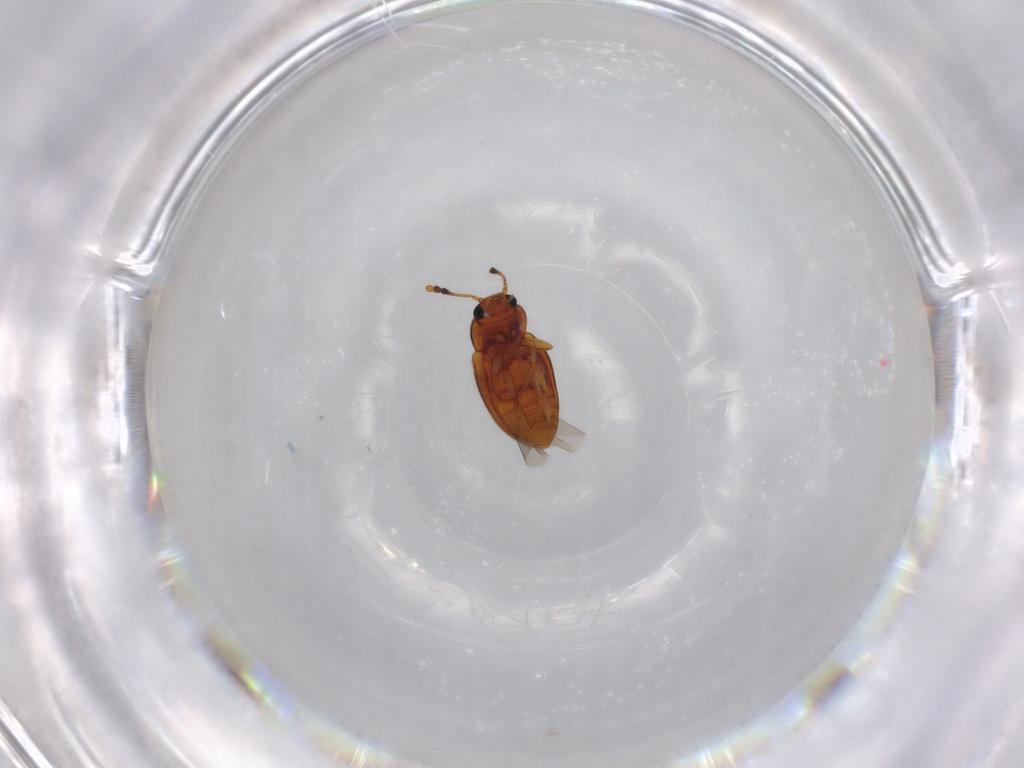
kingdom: Animalia
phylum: Arthropoda
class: Insecta
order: Coleoptera
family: Erotylidae
